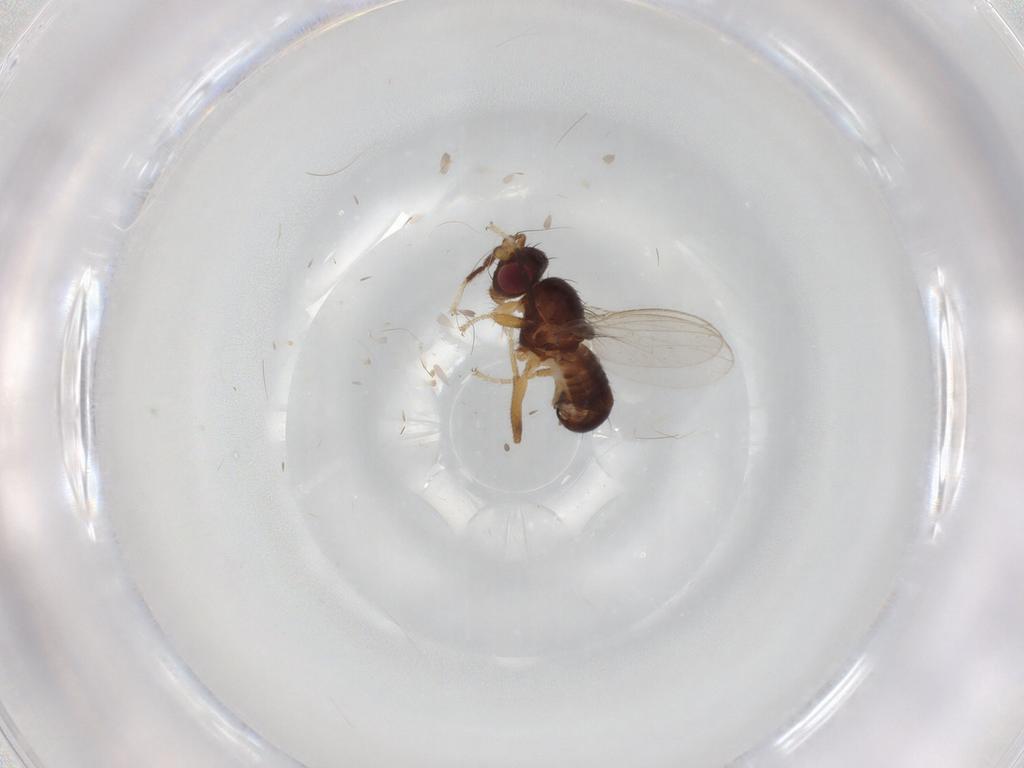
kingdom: Animalia
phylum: Arthropoda
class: Insecta
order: Diptera
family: Cypselosomatidae
